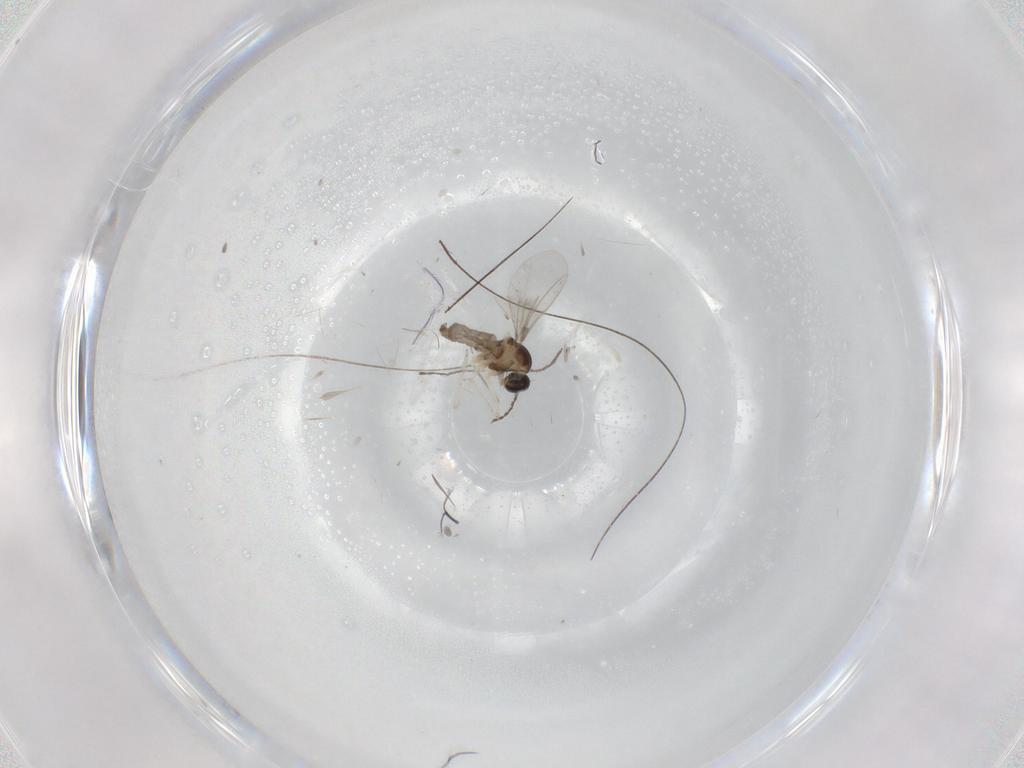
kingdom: Animalia
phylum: Arthropoda
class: Insecta
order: Diptera
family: Cecidomyiidae
